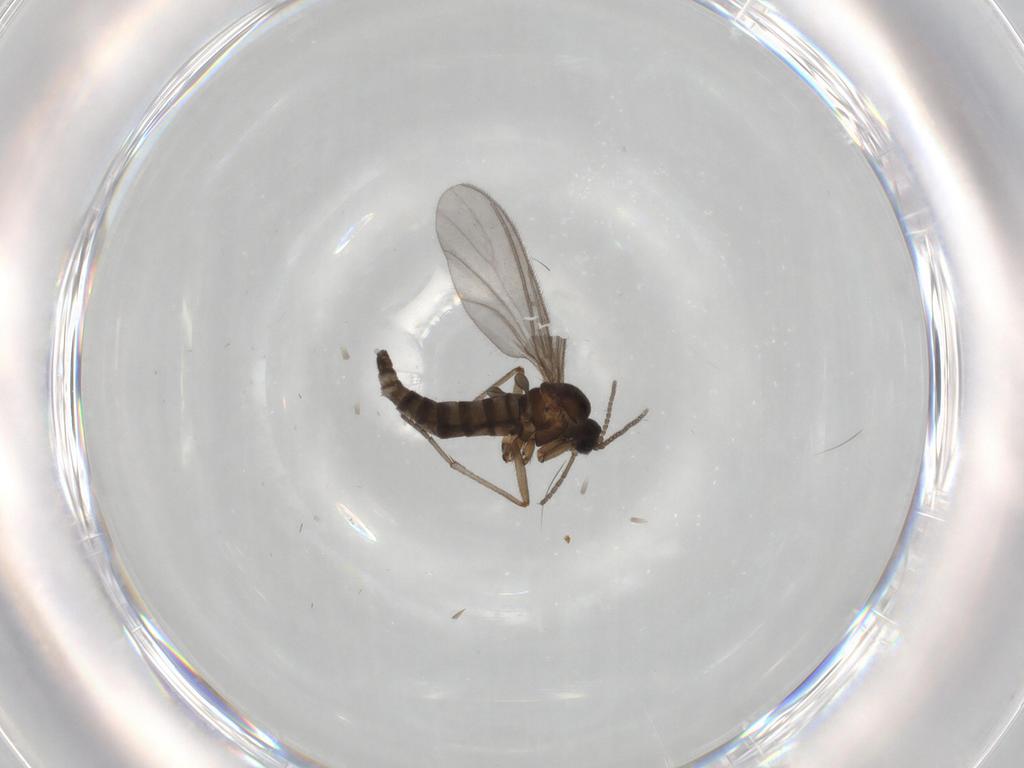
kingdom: Animalia
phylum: Arthropoda
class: Insecta
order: Diptera
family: Sciaridae
